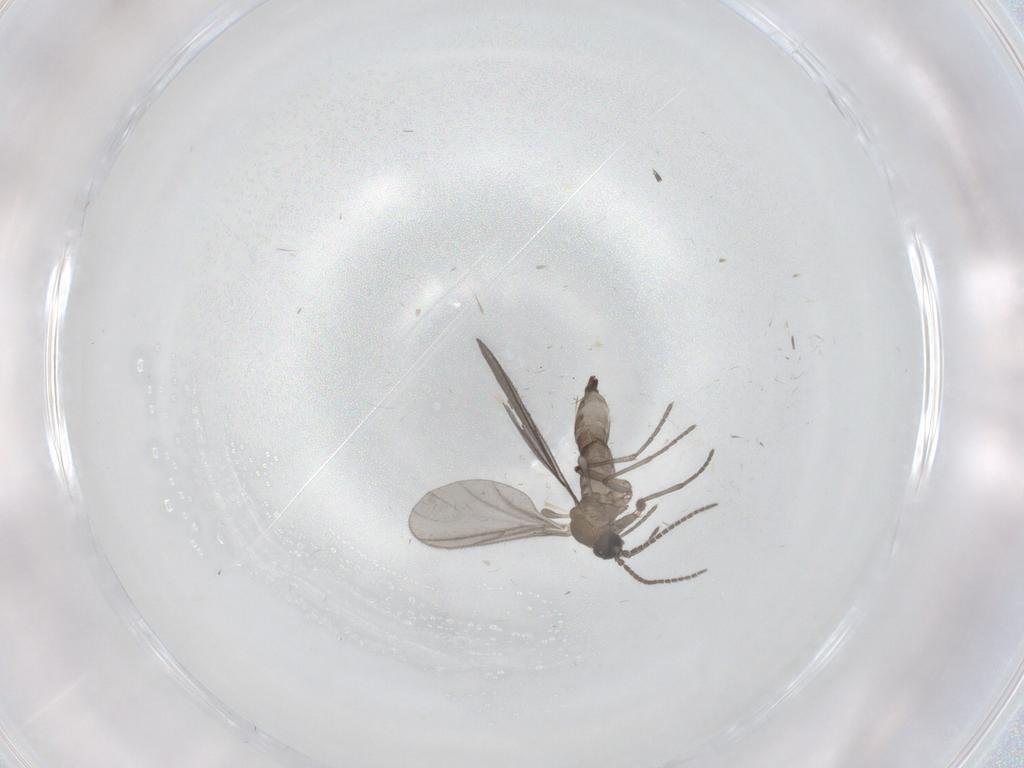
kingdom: Animalia
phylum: Arthropoda
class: Insecta
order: Diptera
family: Sciaridae
